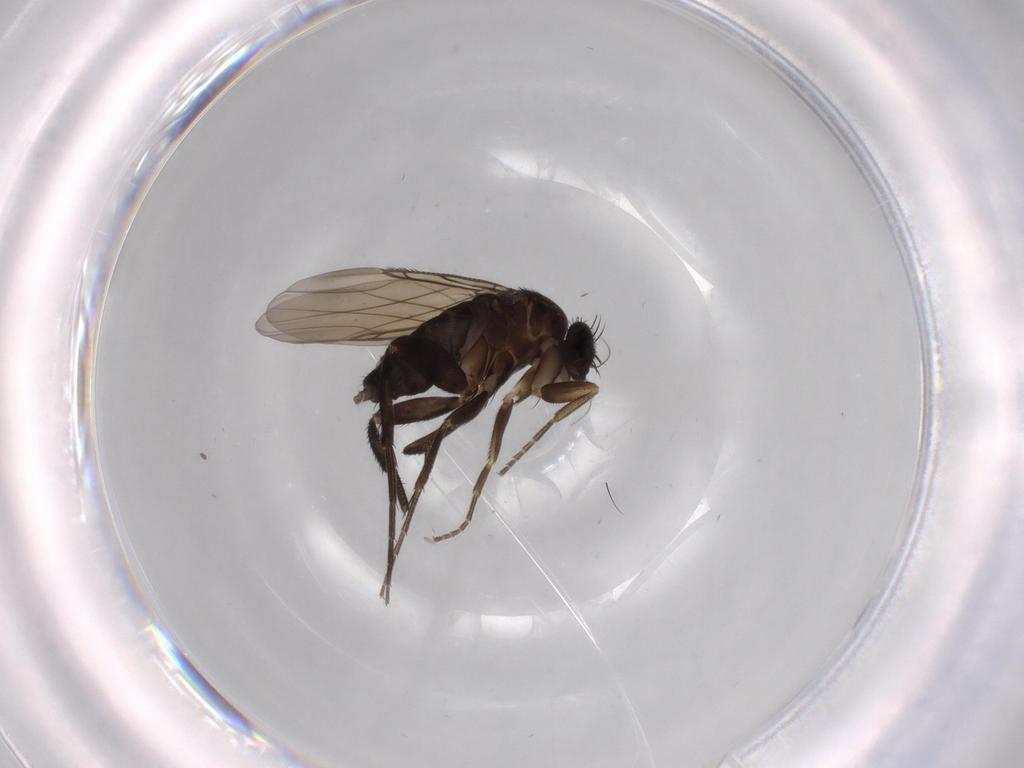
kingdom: Animalia
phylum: Arthropoda
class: Insecta
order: Diptera
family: Phoridae
